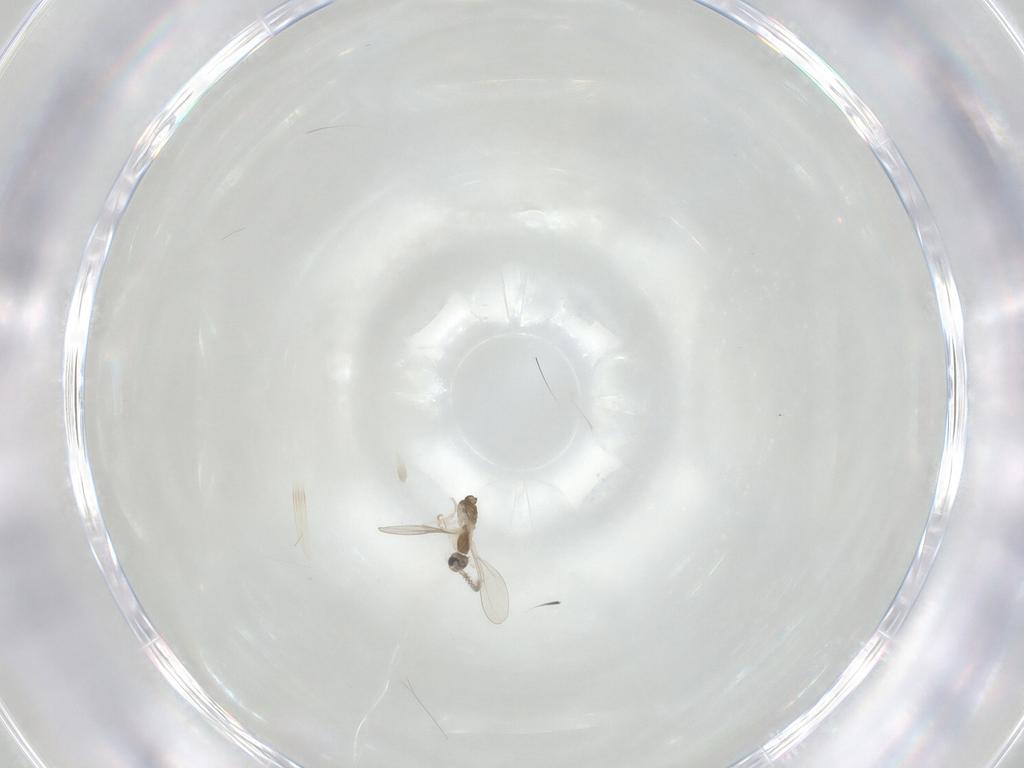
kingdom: Animalia
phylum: Arthropoda
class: Insecta
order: Diptera
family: Cecidomyiidae
